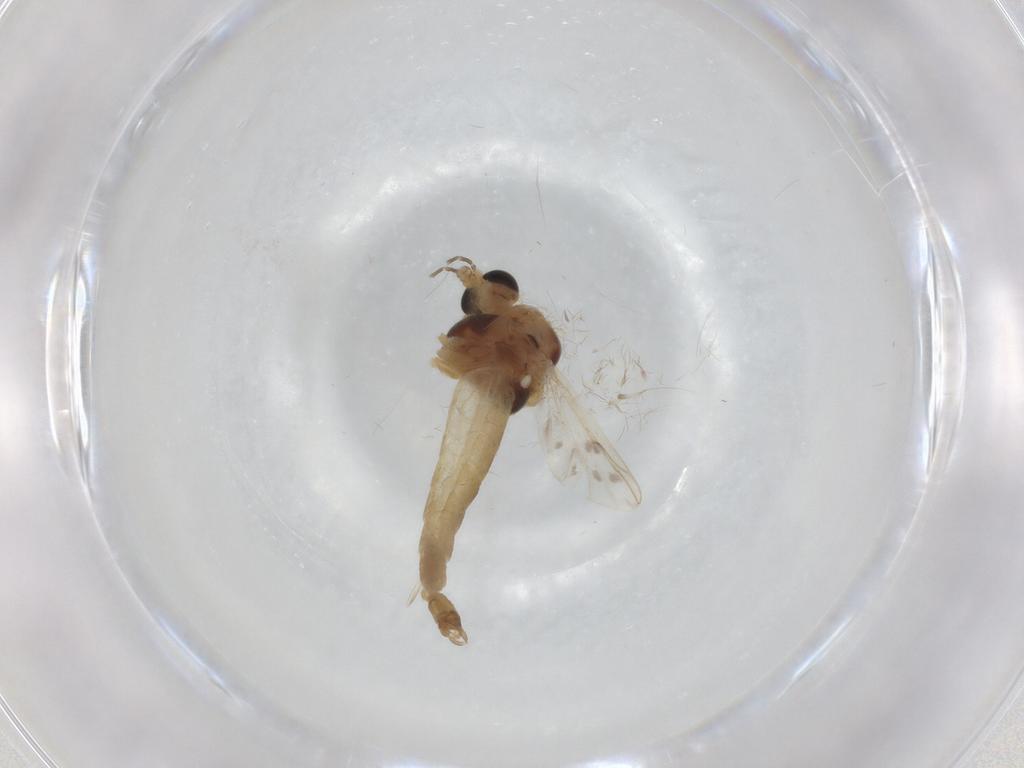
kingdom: Animalia
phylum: Arthropoda
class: Insecta
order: Diptera
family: Chironomidae
